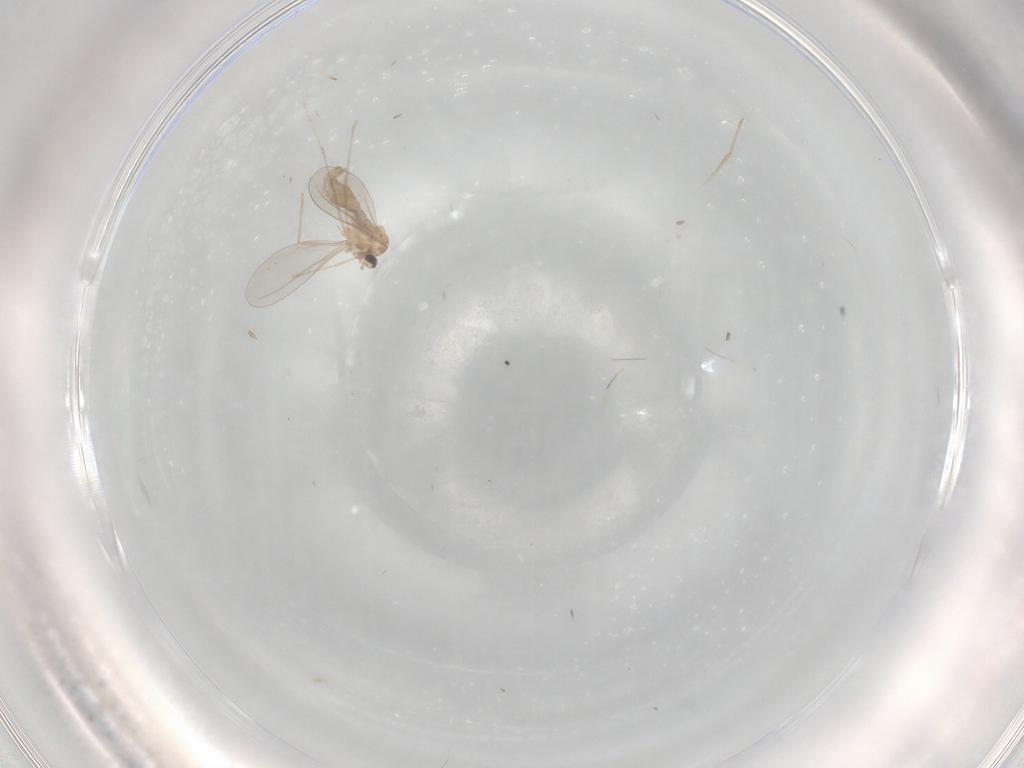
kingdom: Animalia
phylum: Arthropoda
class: Insecta
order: Diptera
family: Cecidomyiidae
